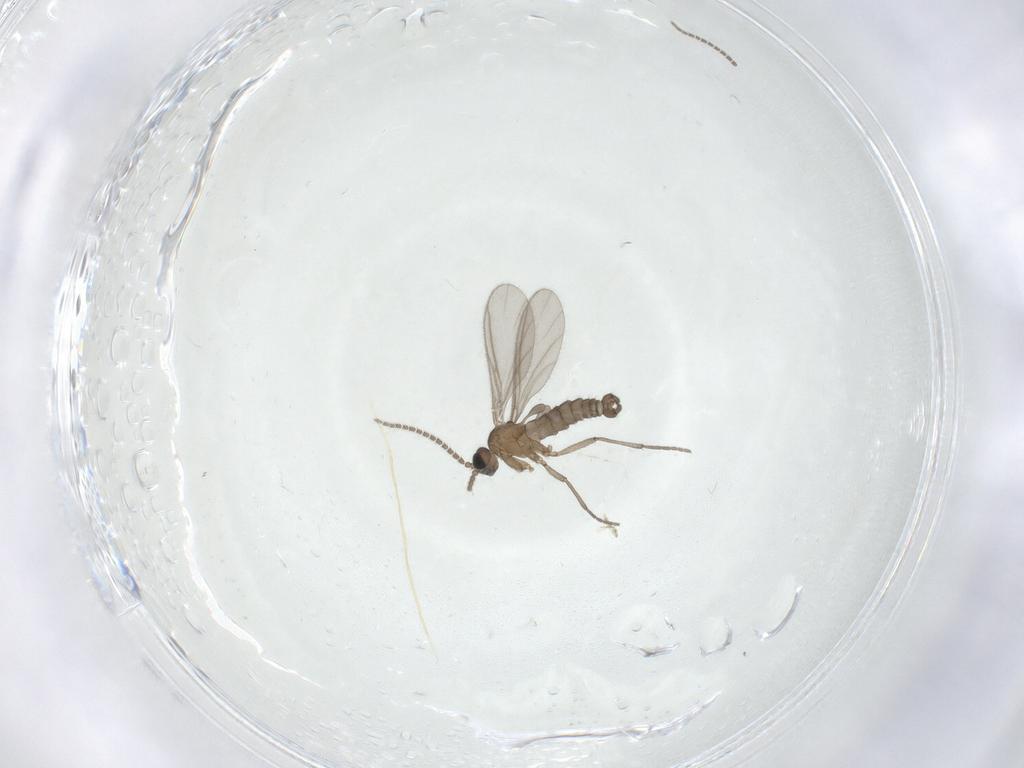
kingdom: Animalia
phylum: Arthropoda
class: Insecta
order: Diptera
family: Sciaridae
